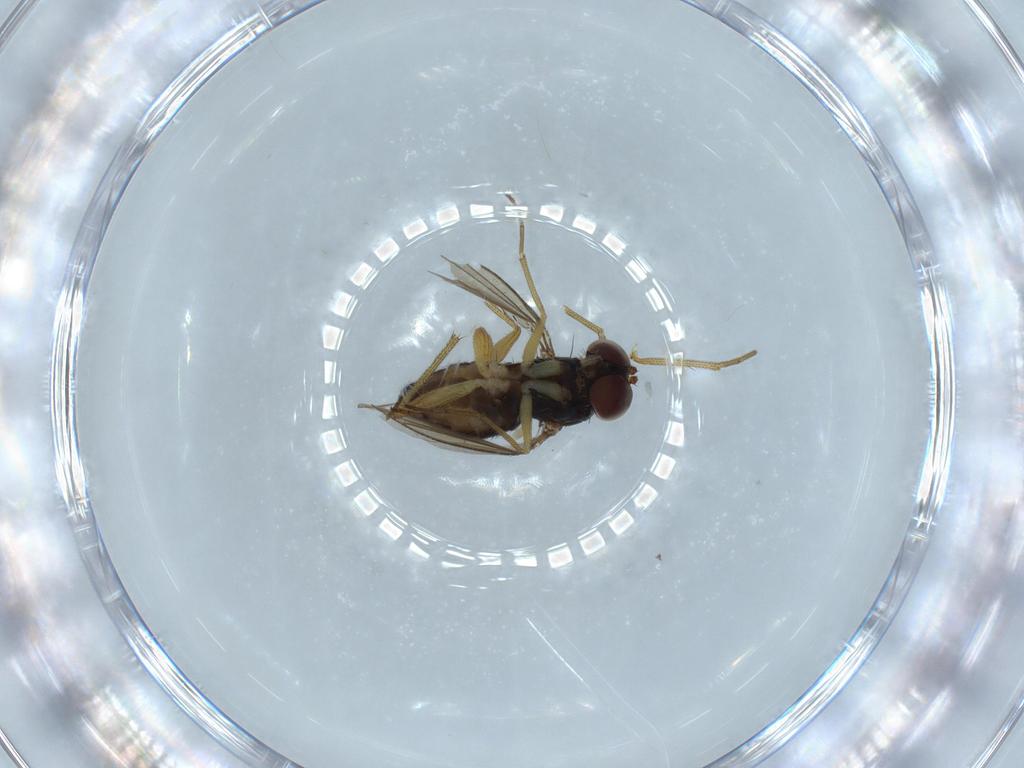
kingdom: Animalia
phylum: Arthropoda
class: Insecta
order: Diptera
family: Dolichopodidae
